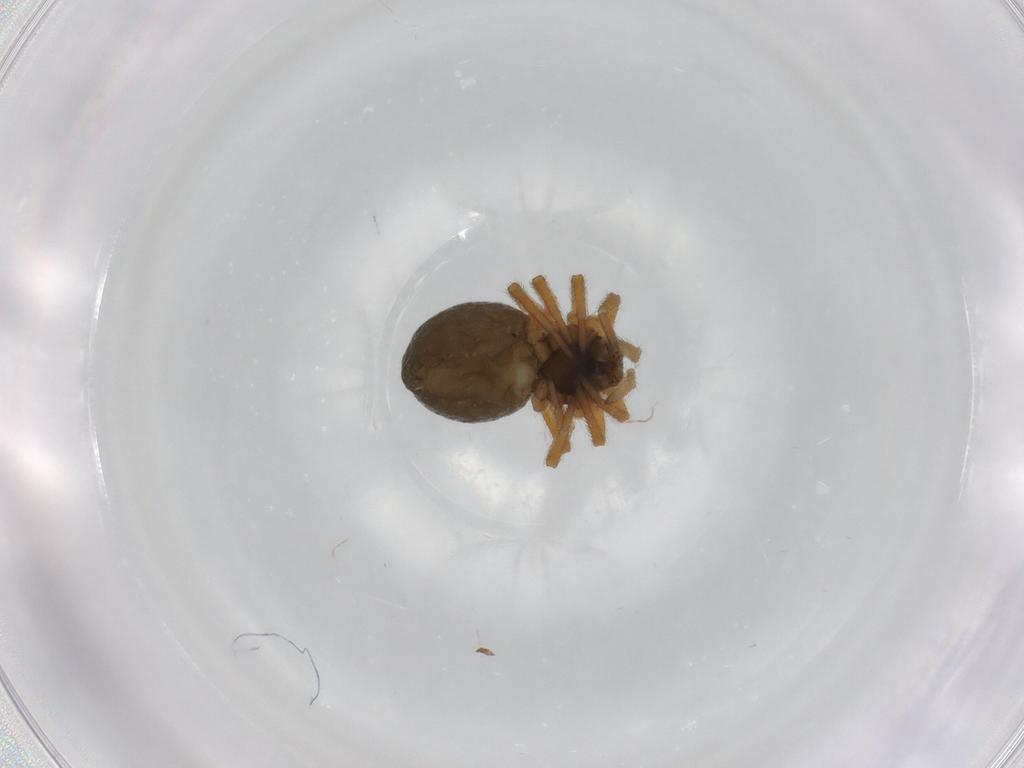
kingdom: Animalia
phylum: Arthropoda
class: Arachnida
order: Araneae
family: Linyphiidae
